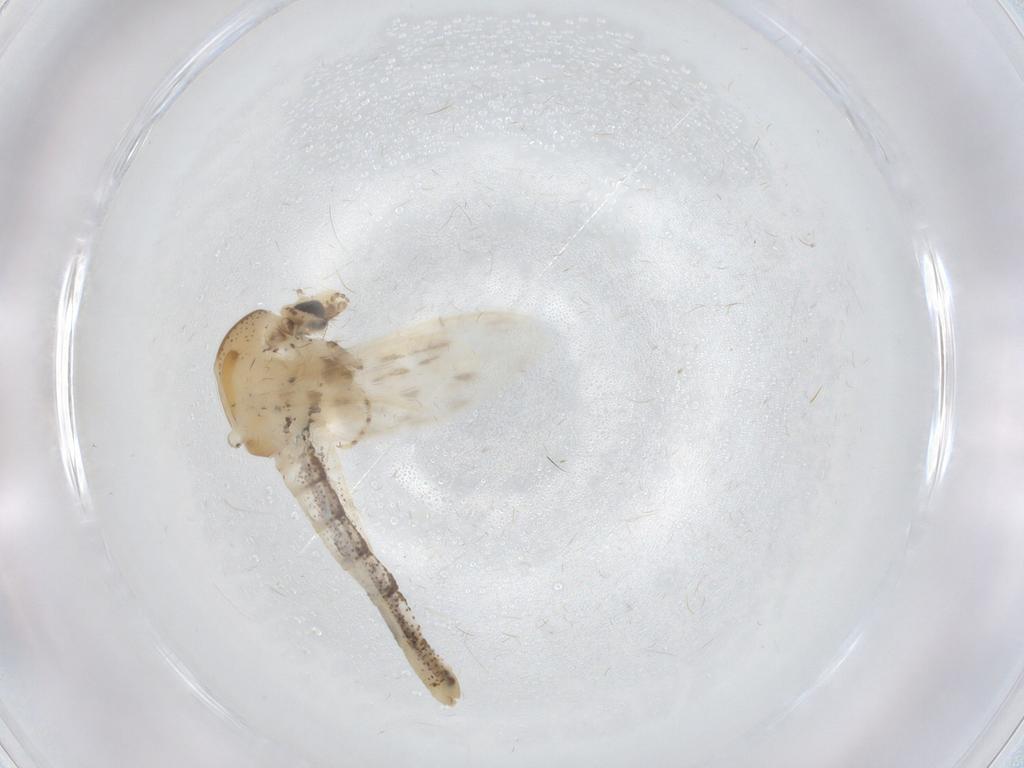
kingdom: Animalia
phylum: Arthropoda
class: Insecta
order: Diptera
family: Chaoboridae
